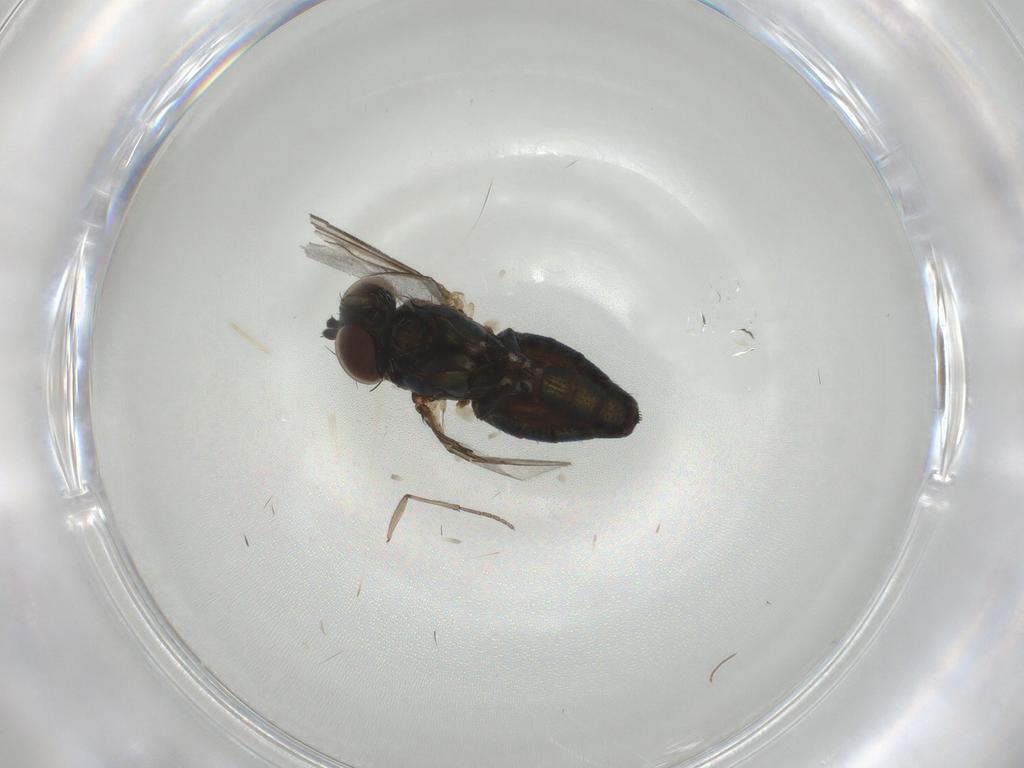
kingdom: Animalia
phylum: Arthropoda
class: Insecta
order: Diptera
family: Dolichopodidae
